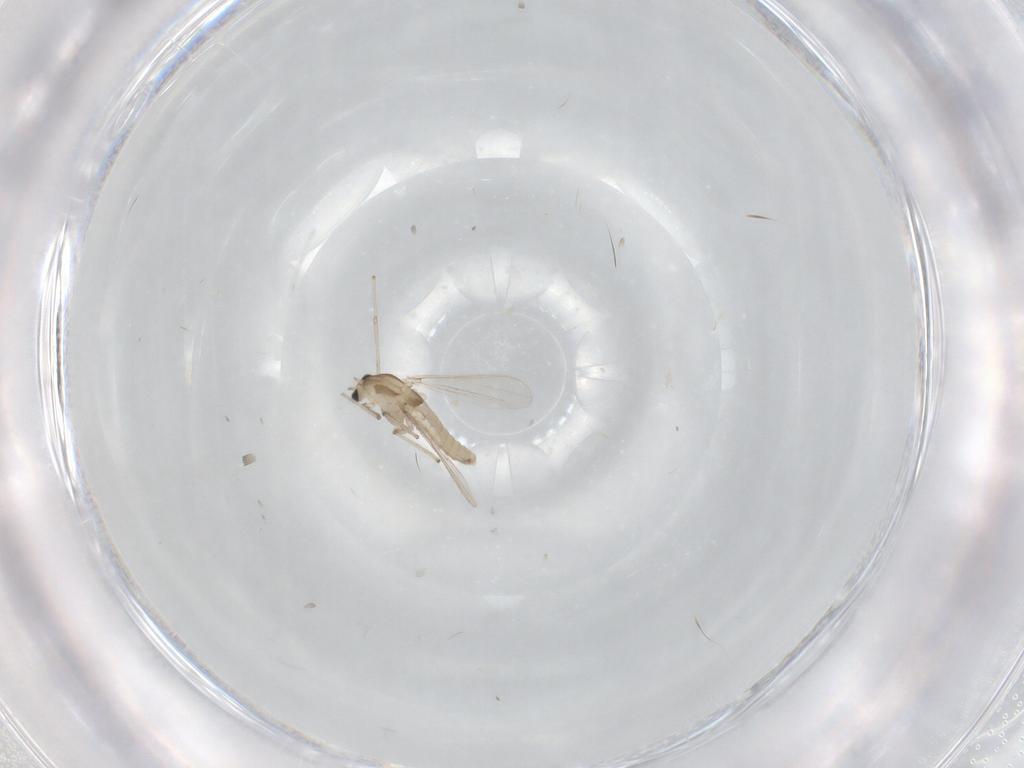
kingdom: Animalia
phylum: Arthropoda
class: Insecta
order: Diptera
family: Chironomidae
